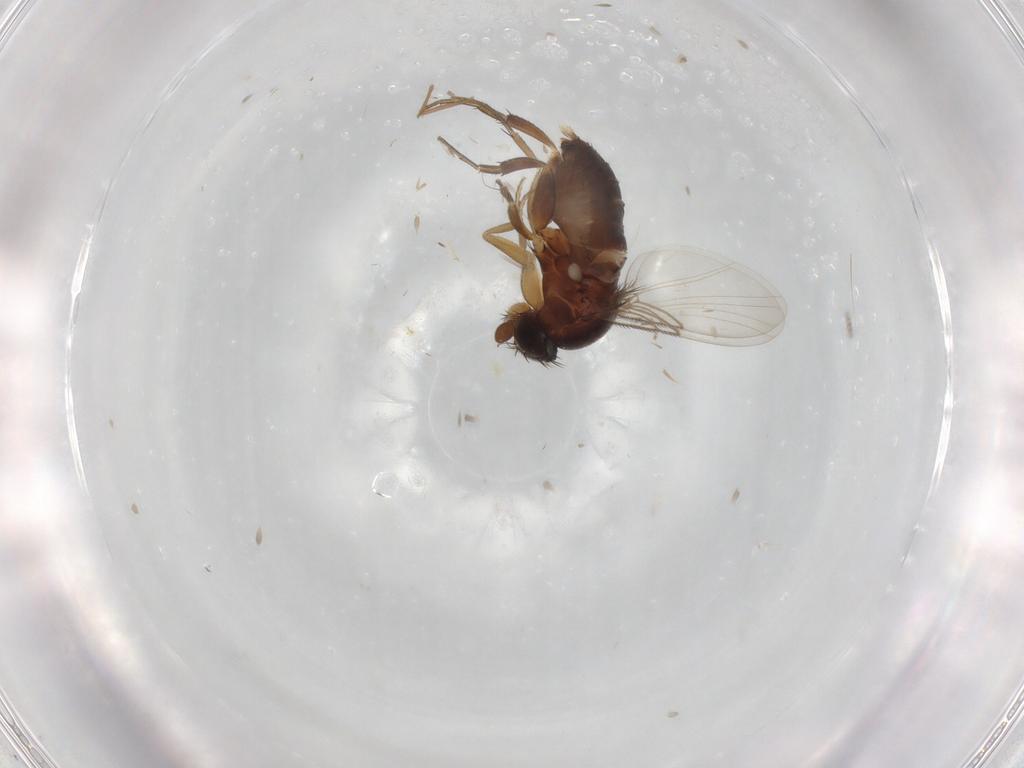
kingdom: Animalia
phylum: Arthropoda
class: Insecta
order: Diptera
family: Phoridae
